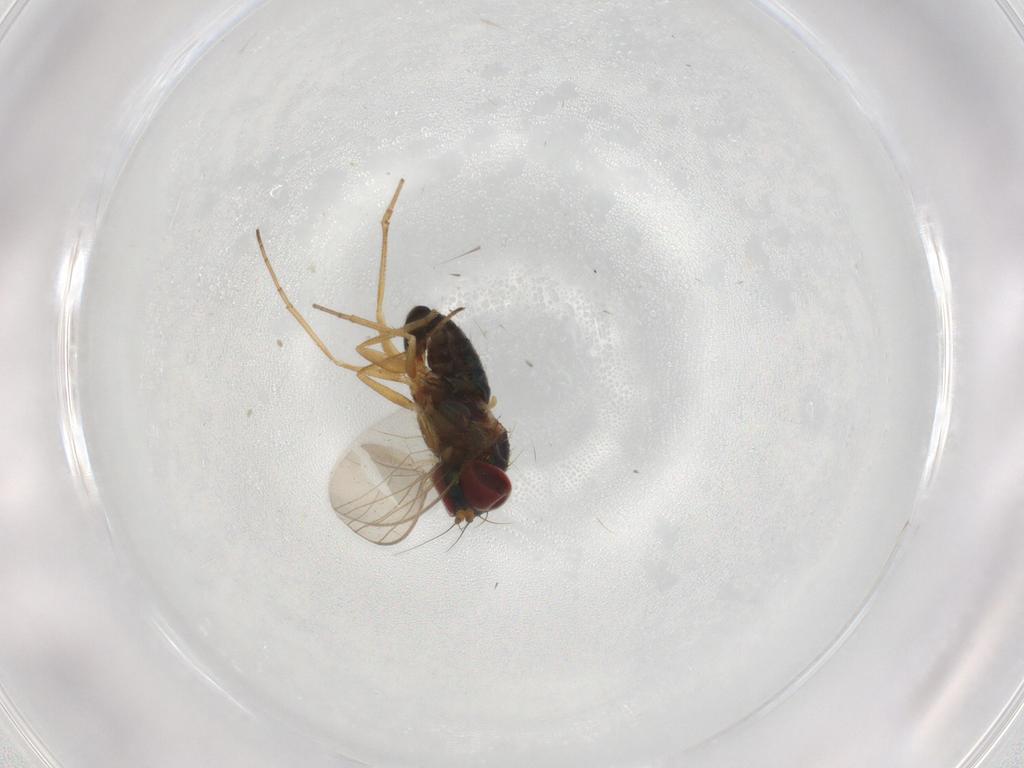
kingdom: Animalia
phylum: Arthropoda
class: Insecta
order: Diptera
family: Dolichopodidae
